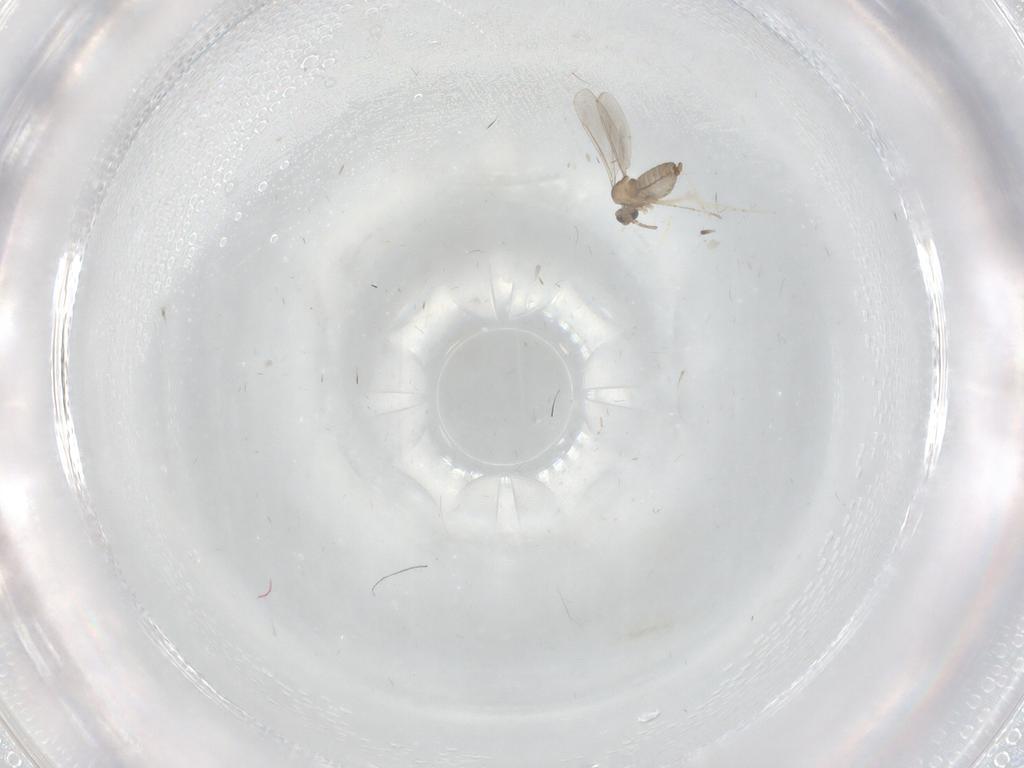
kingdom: Animalia
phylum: Arthropoda
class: Insecta
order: Diptera
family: Cecidomyiidae
